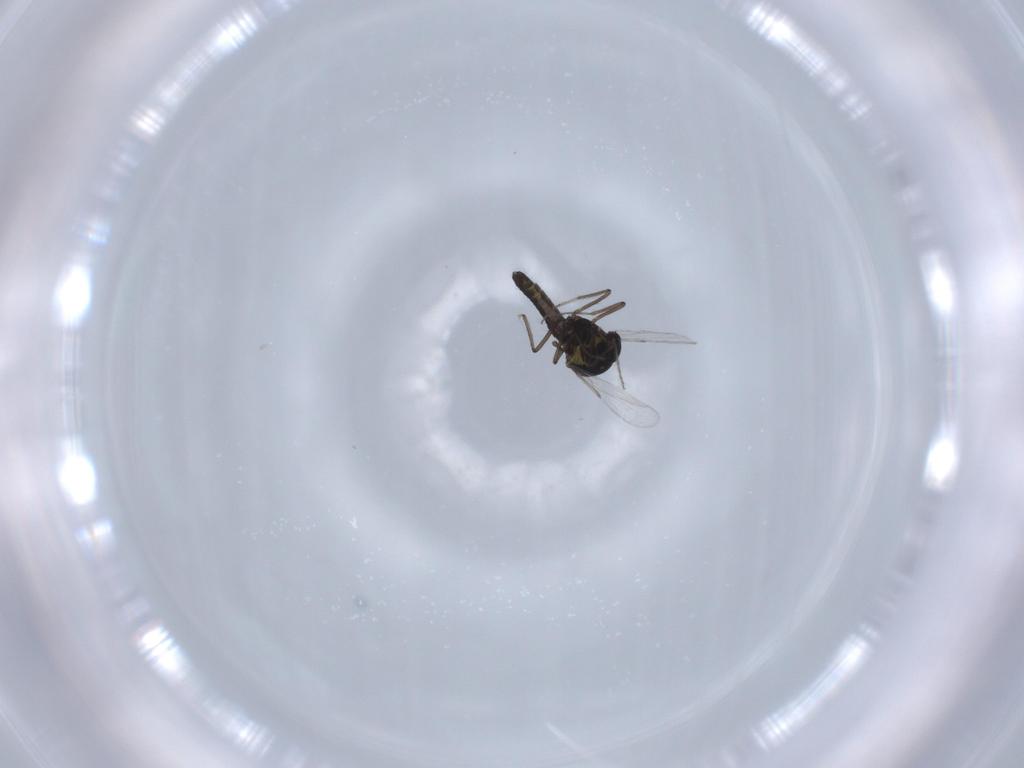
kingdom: Animalia
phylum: Arthropoda
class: Insecta
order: Diptera
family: Ceratopogonidae
